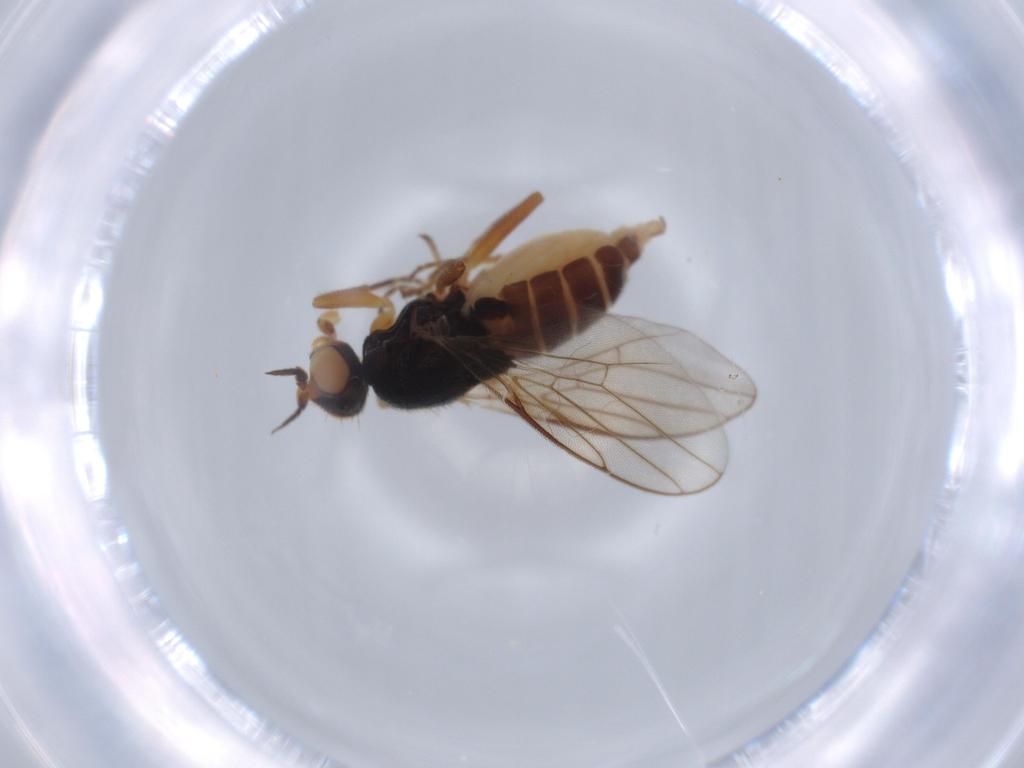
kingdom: Animalia
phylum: Arthropoda
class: Insecta
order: Diptera
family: Chloropidae
